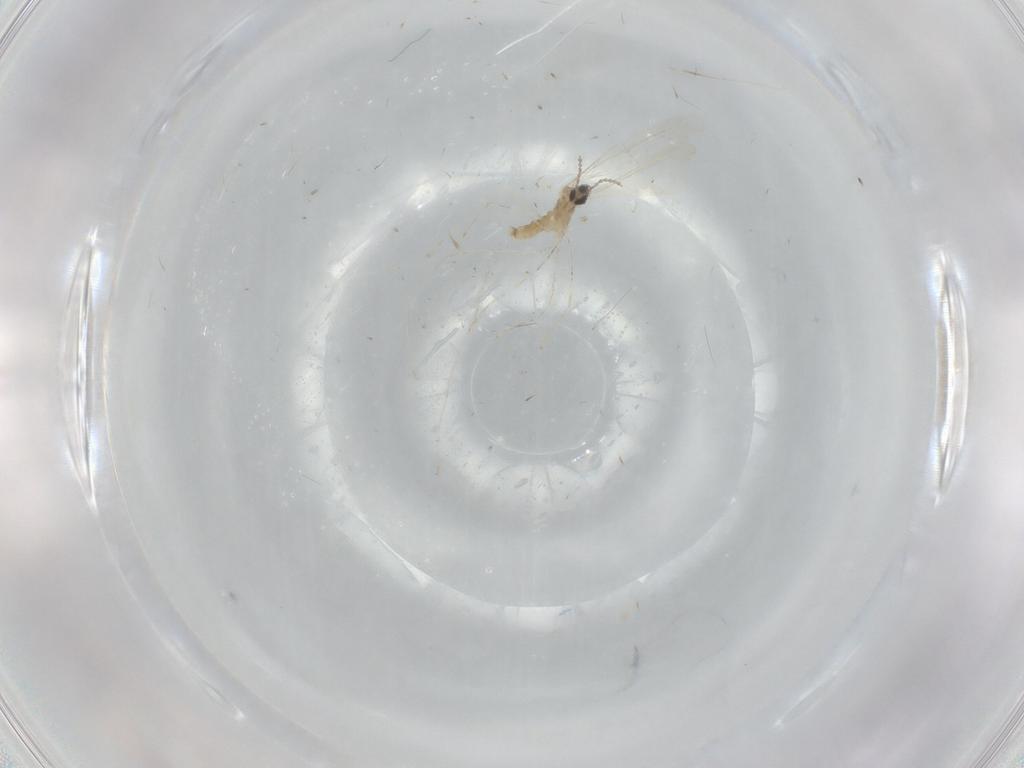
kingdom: Animalia
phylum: Arthropoda
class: Insecta
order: Diptera
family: Cecidomyiidae
